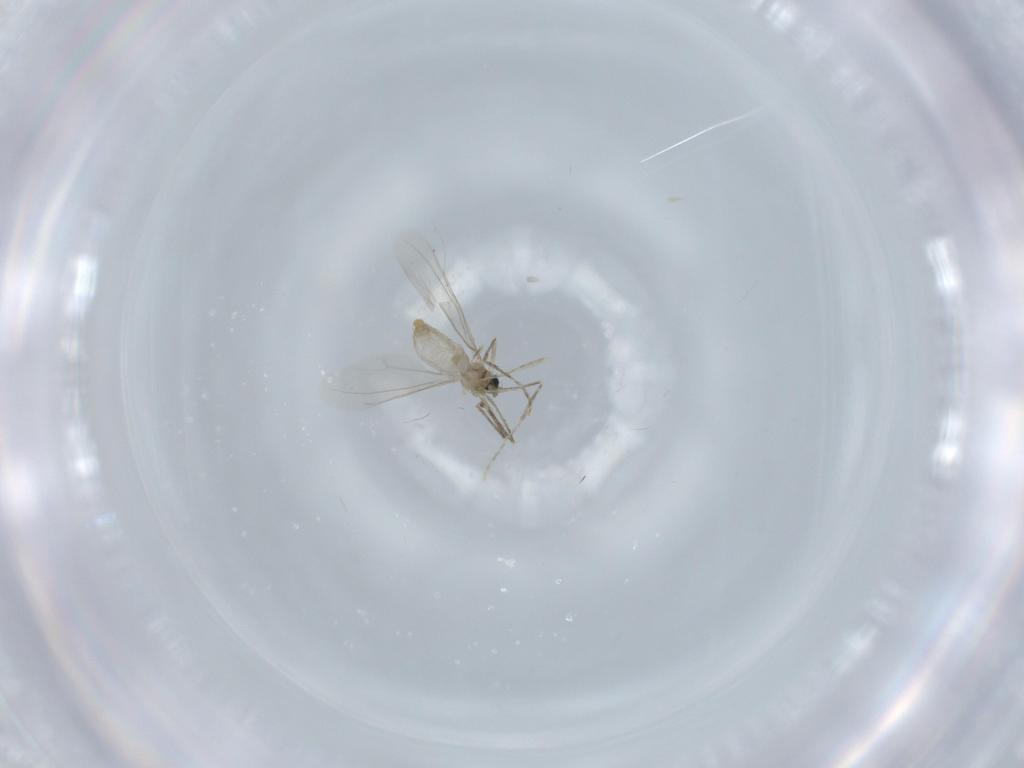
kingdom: Animalia
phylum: Arthropoda
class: Insecta
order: Diptera
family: Cecidomyiidae
